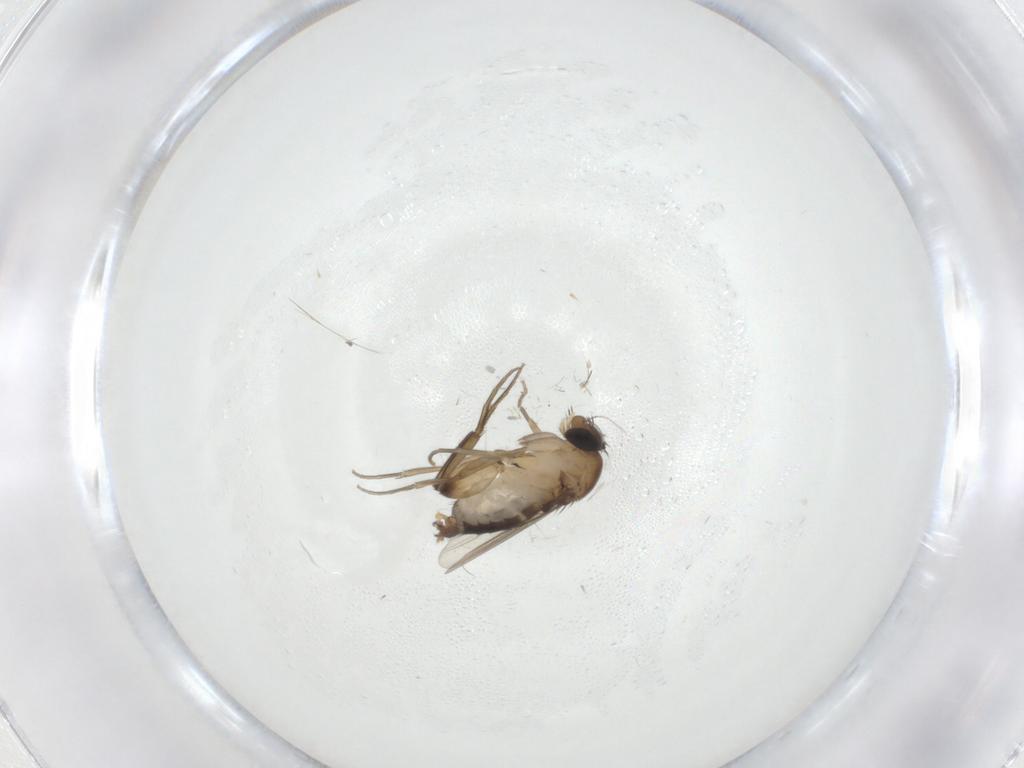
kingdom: Animalia
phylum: Arthropoda
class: Insecta
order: Diptera
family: Phoridae
